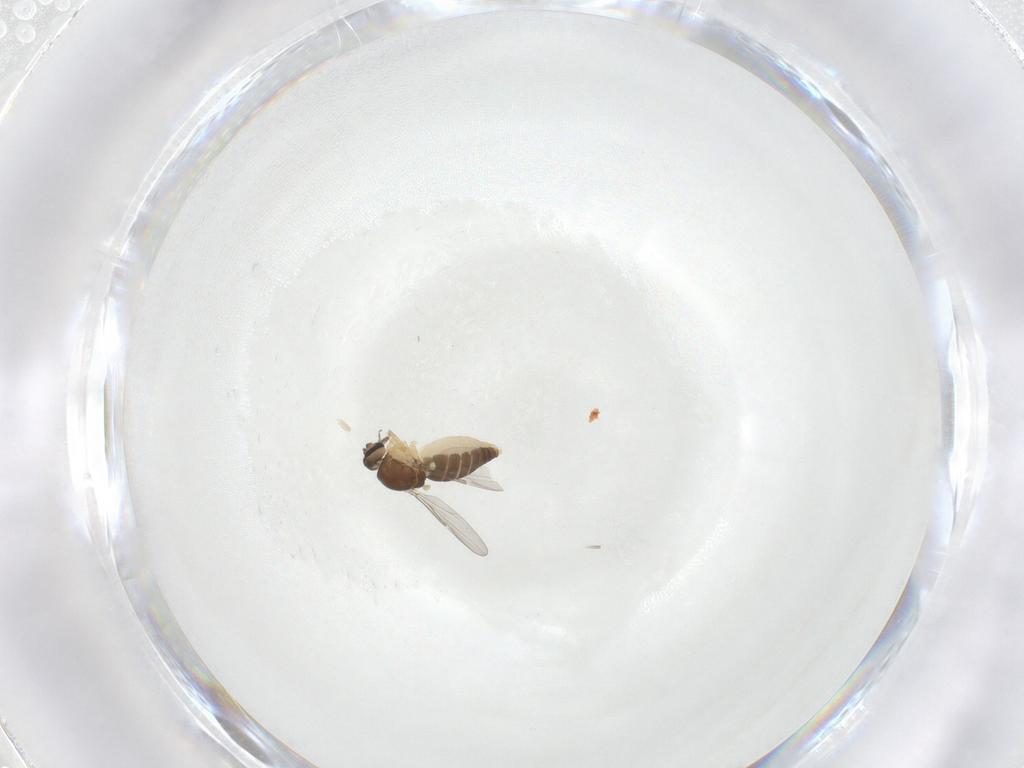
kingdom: Animalia
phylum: Arthropoda
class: Insecta
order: Diptera
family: Ceratopogonidae
